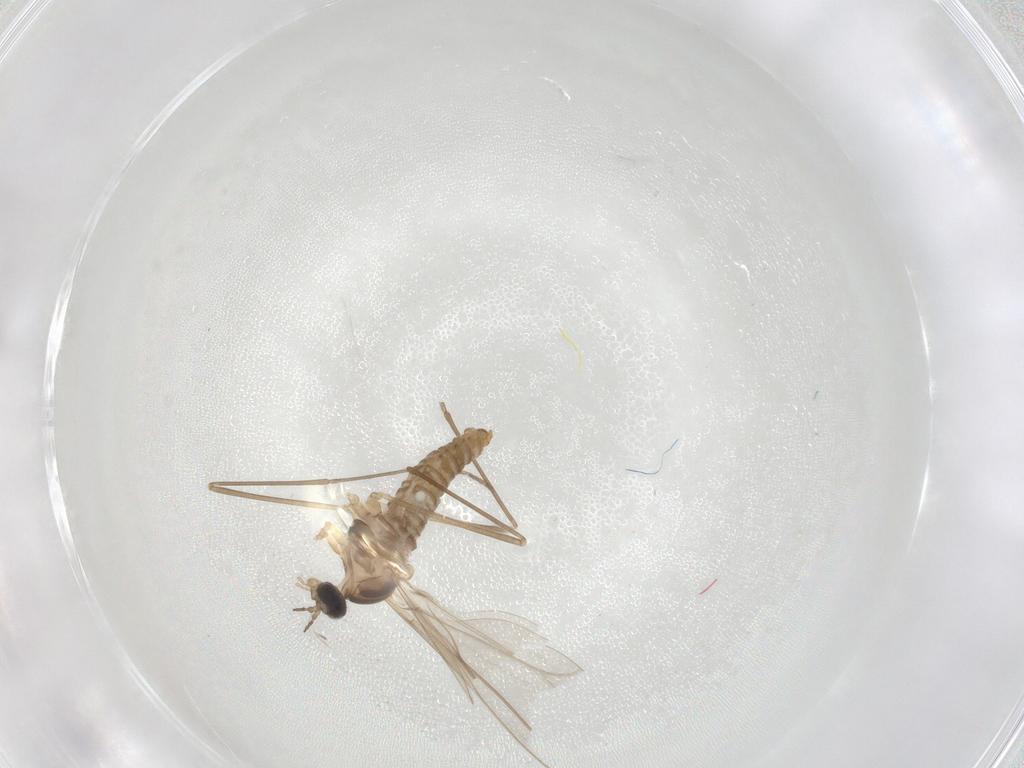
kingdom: Animalia
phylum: Arthropoda
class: Insecta
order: Diptera
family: Cecidomyiidae
